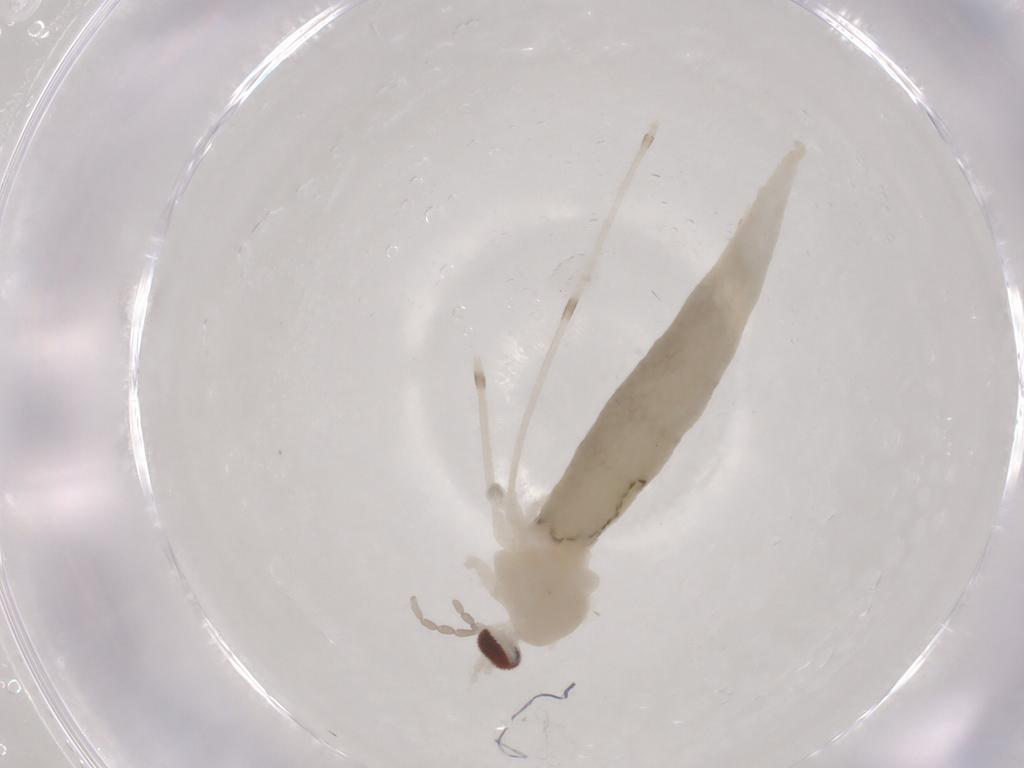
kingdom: Animalia
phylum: Arthropoda
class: Insecta
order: Diptera
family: Cecidomyiidae
